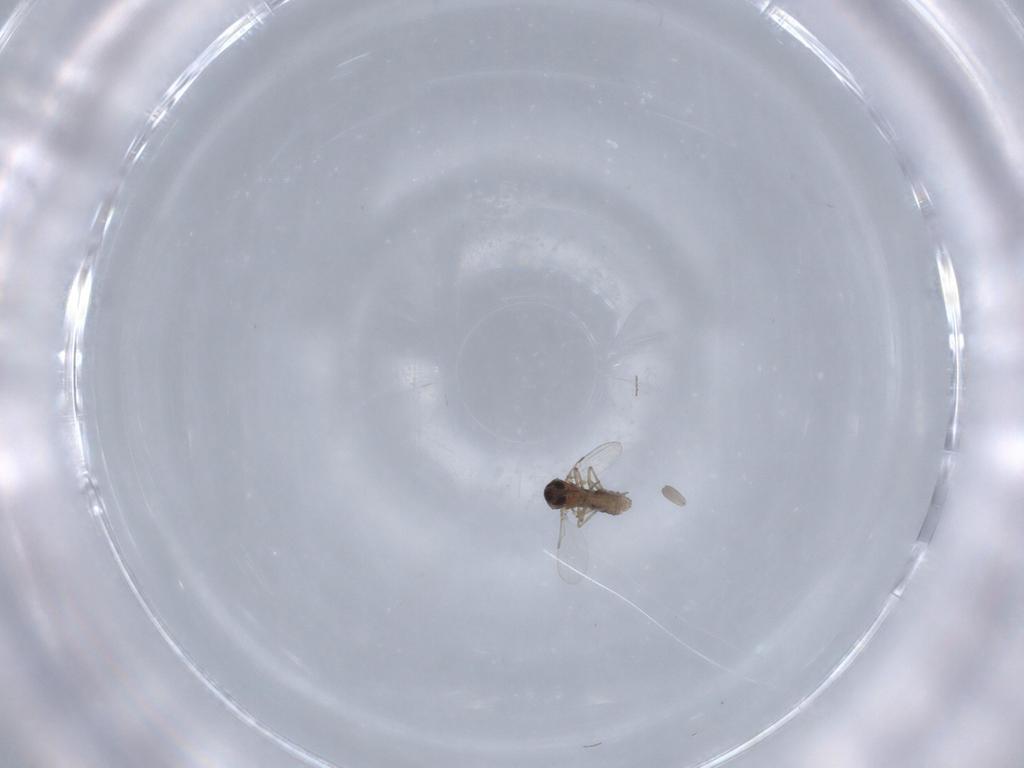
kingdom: Animalia
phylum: Arthropoda
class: Insecta
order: Diptera
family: Ceratopogonidae
